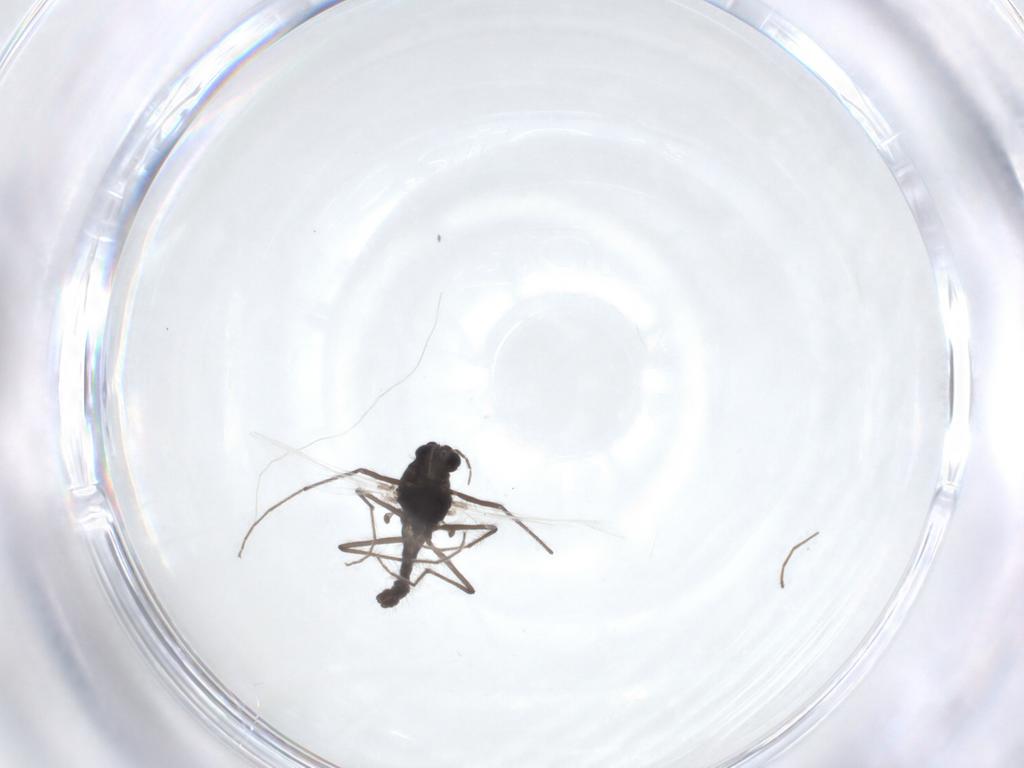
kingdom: Animalia
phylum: Arthropoda
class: Insecta
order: Diptera
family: Chironomidae
